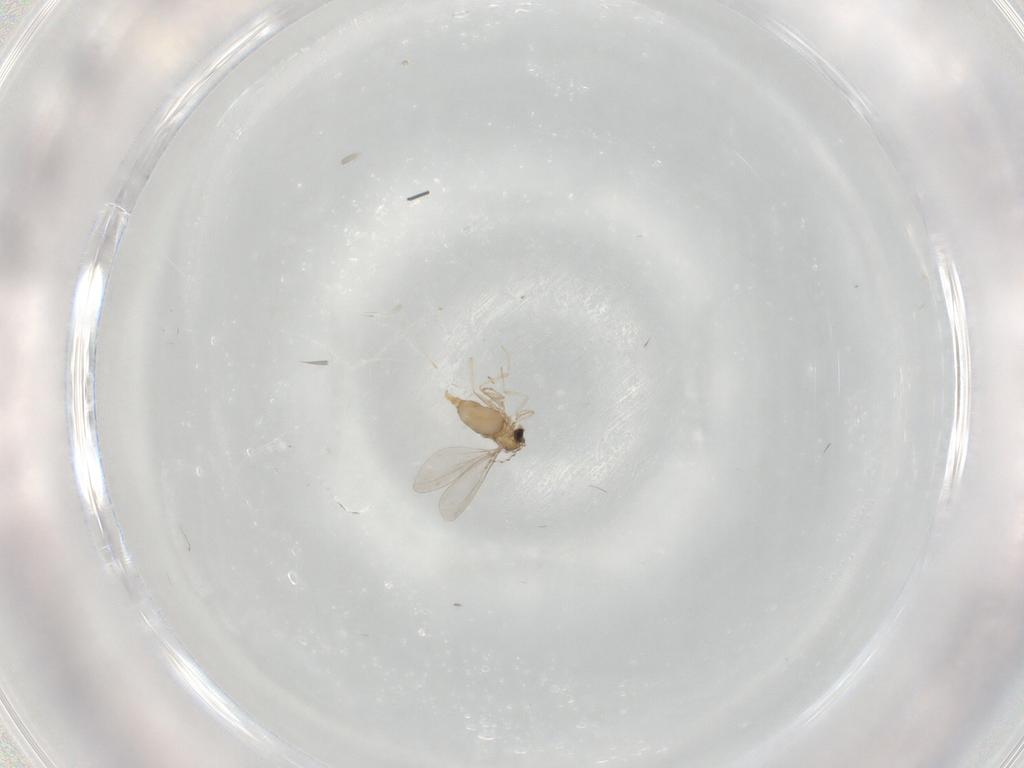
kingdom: Animalia
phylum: Arthropoda
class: Insecta
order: Diptera
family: Cecidomyiidae
